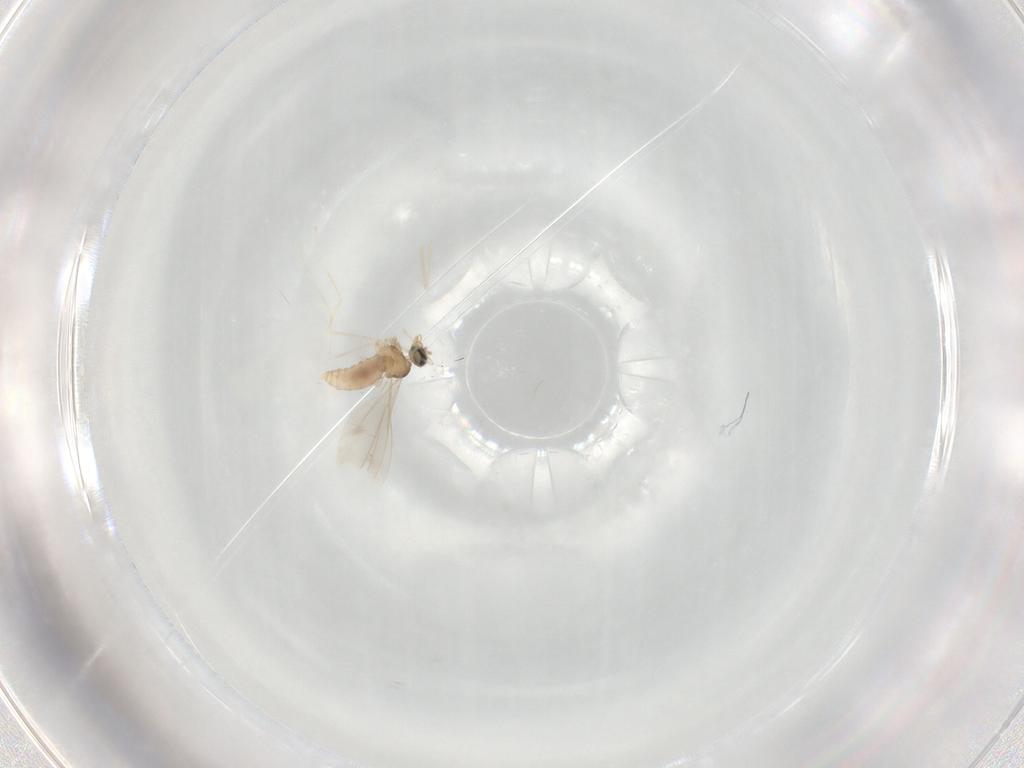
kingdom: Animalia
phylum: Arthropoda
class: Insecta
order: Diptera
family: Cecidomyiidae
